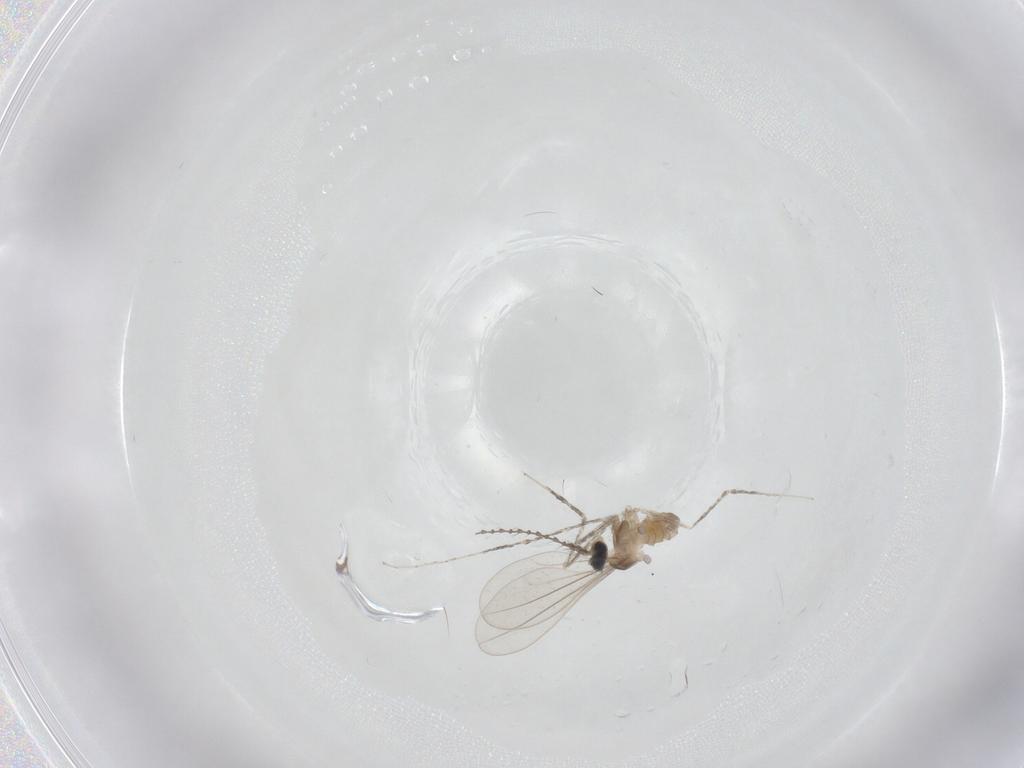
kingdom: Animalia
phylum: Arthropoda
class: Insecta
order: Diptera
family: Cecidomyiidae
